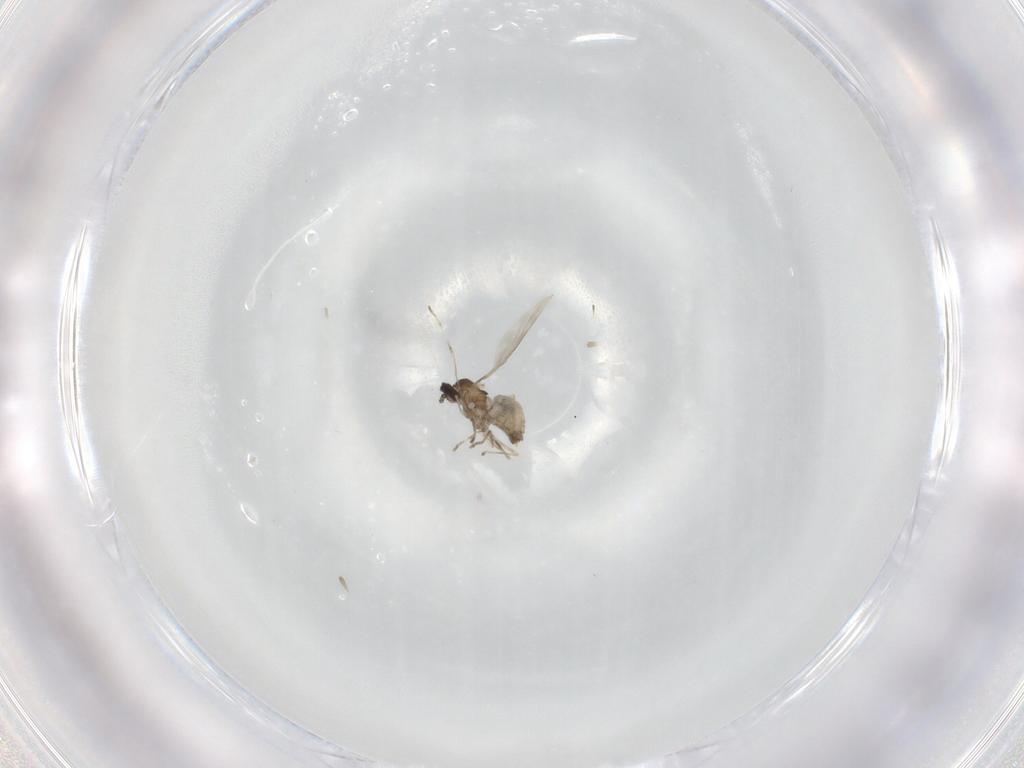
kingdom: Animalia
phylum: Arthropoda
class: Insecta
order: Diptera
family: Cecidomyiidae
